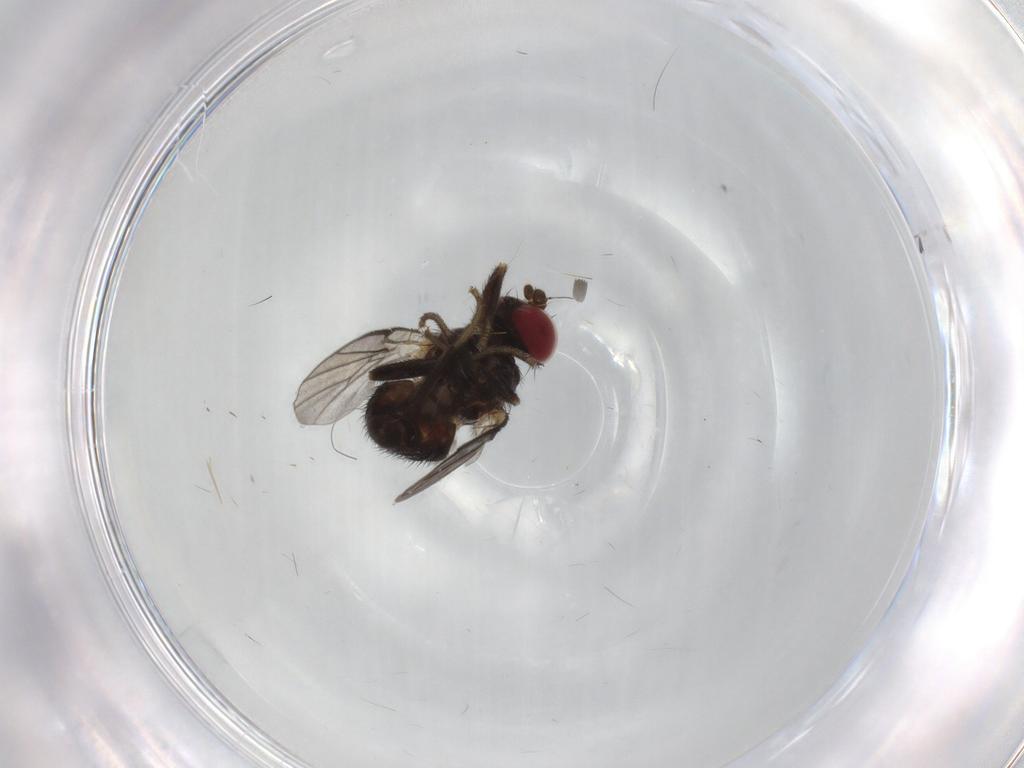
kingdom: Animalia
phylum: Arthropoda
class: Insecta
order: Diptera
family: Agromyzidae
